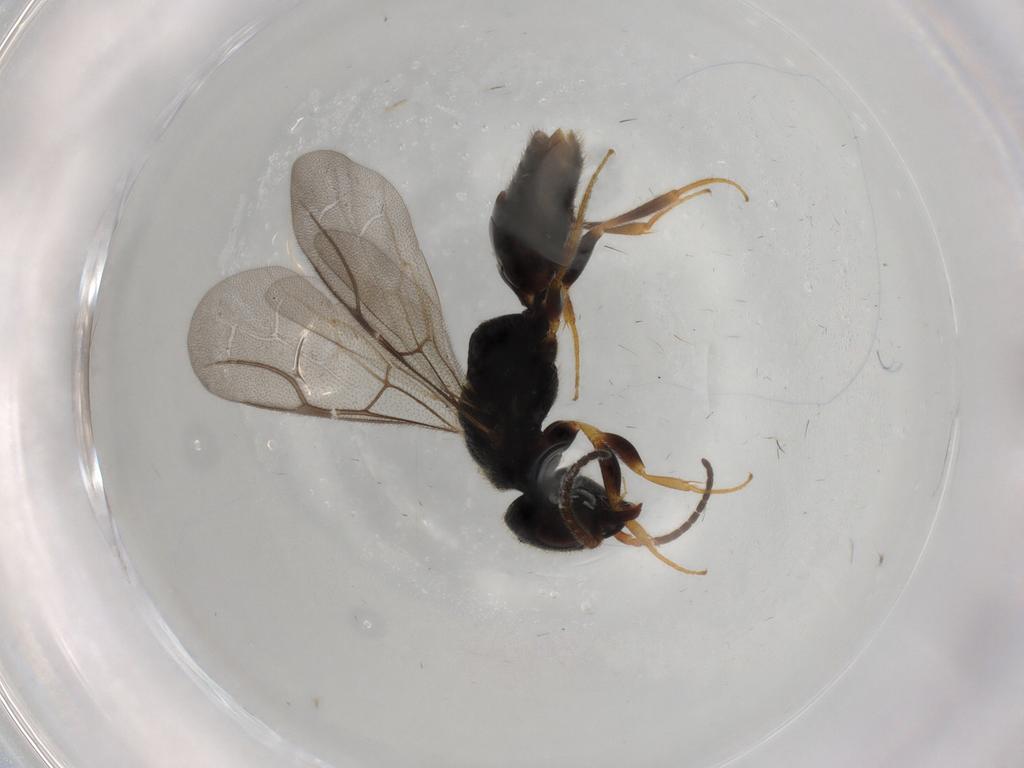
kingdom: Animalia
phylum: Arthropoda
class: Insecta
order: Hymenoptera
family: Bethylidae
